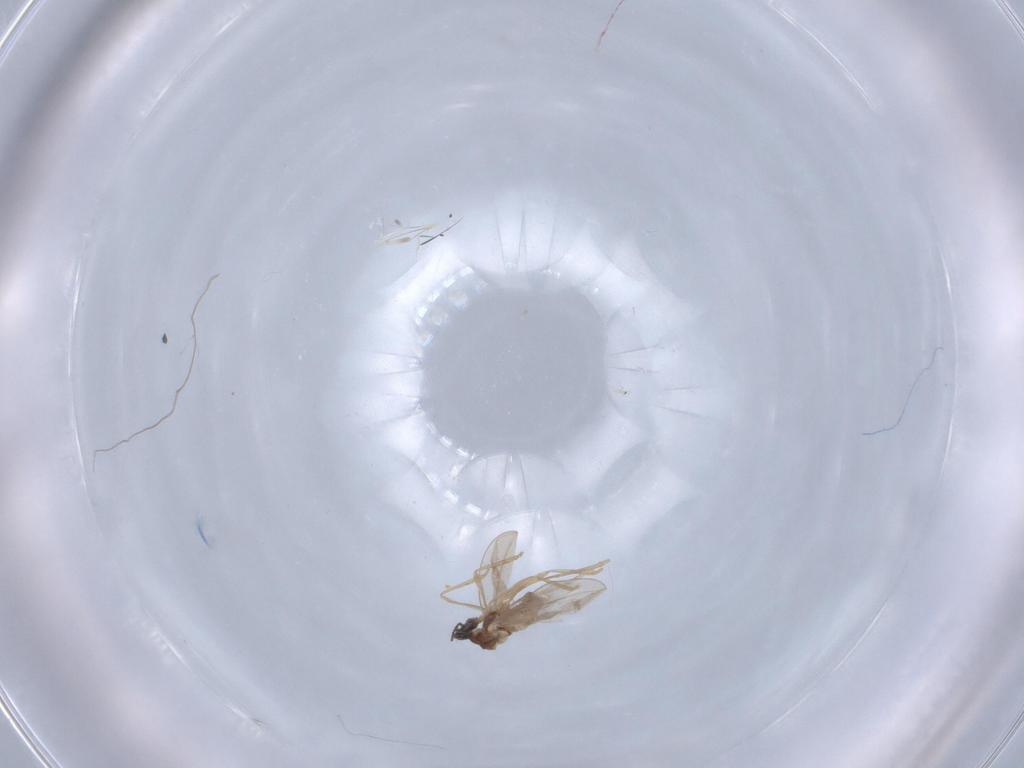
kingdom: Animalia
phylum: Arthropoda
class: Insecta
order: Diptera
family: Cecidomyiidae
